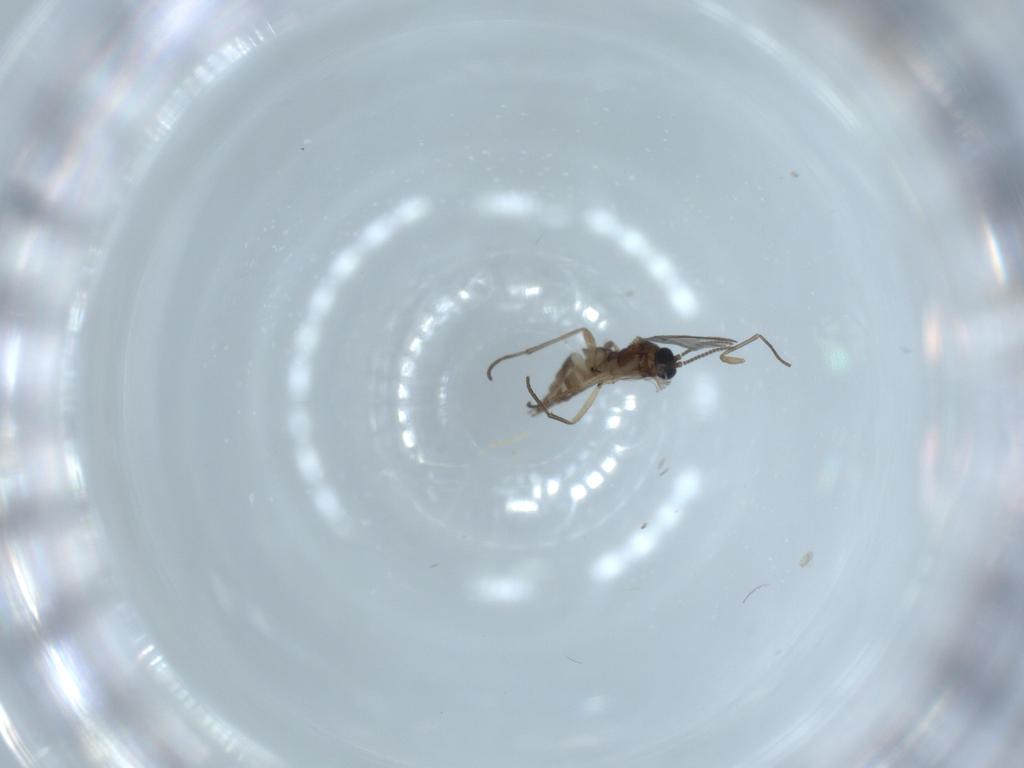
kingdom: Animalia
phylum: Arthropoda
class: Insecta
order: Diptera
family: Sciaridae
